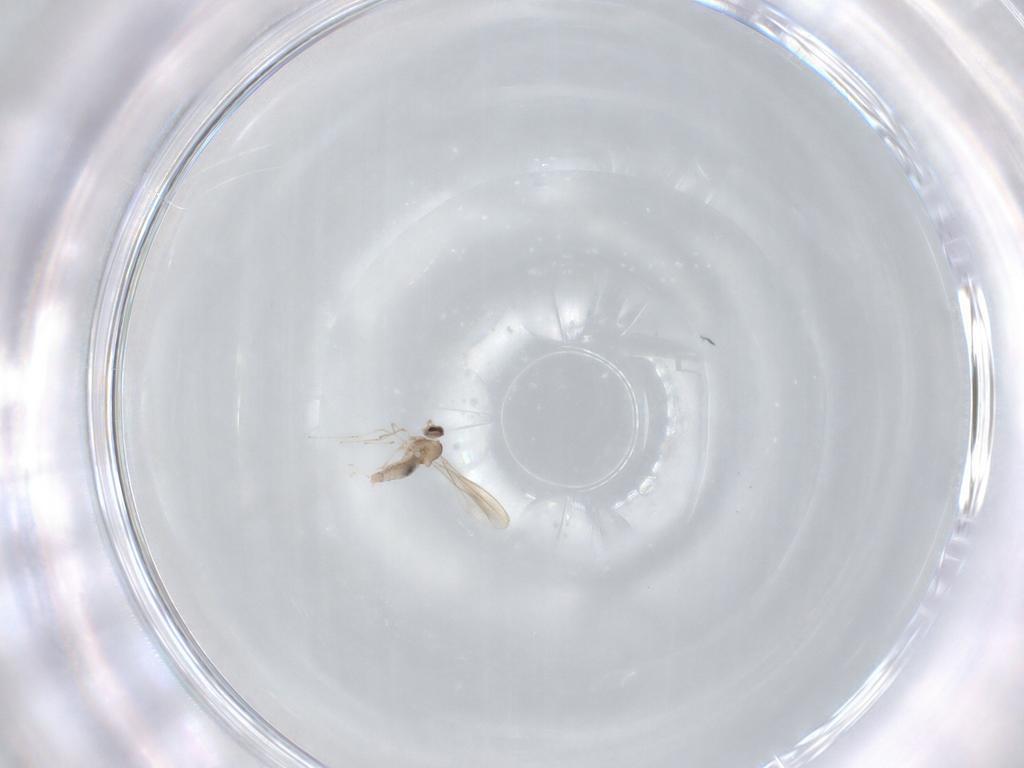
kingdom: Animalia
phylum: Arthropoda
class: Insecta
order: Diptera
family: Cecidomyiidae
